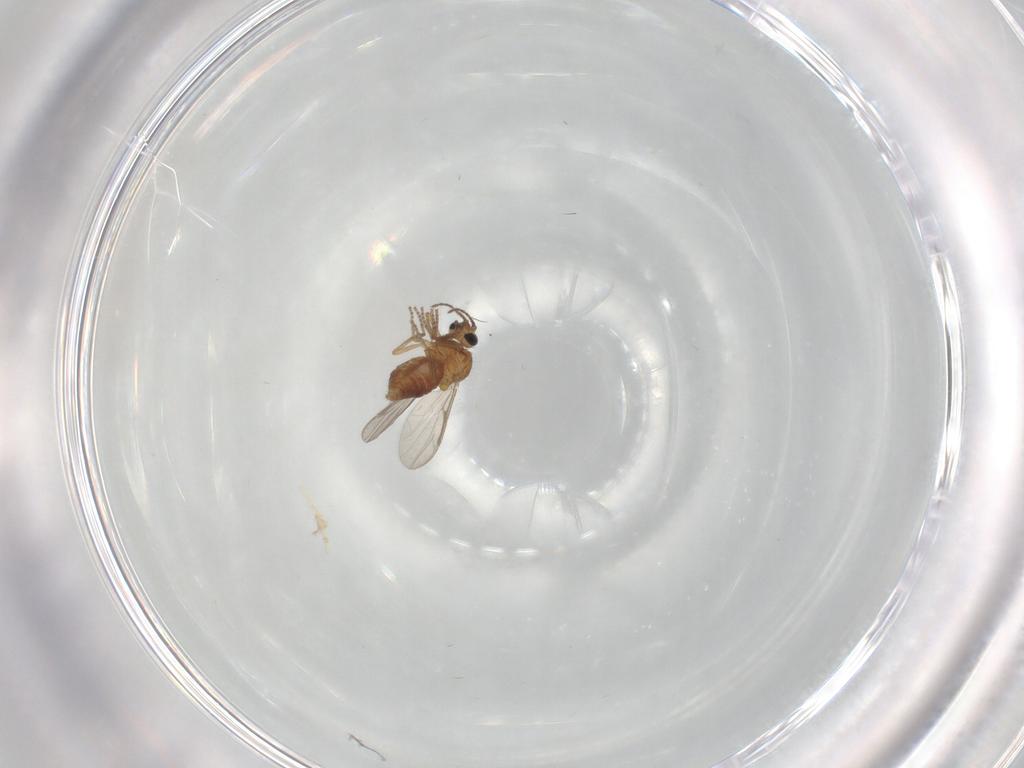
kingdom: Animalia
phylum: Arthropoda
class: Insecta
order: Diptera
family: Cecidomyiidae
